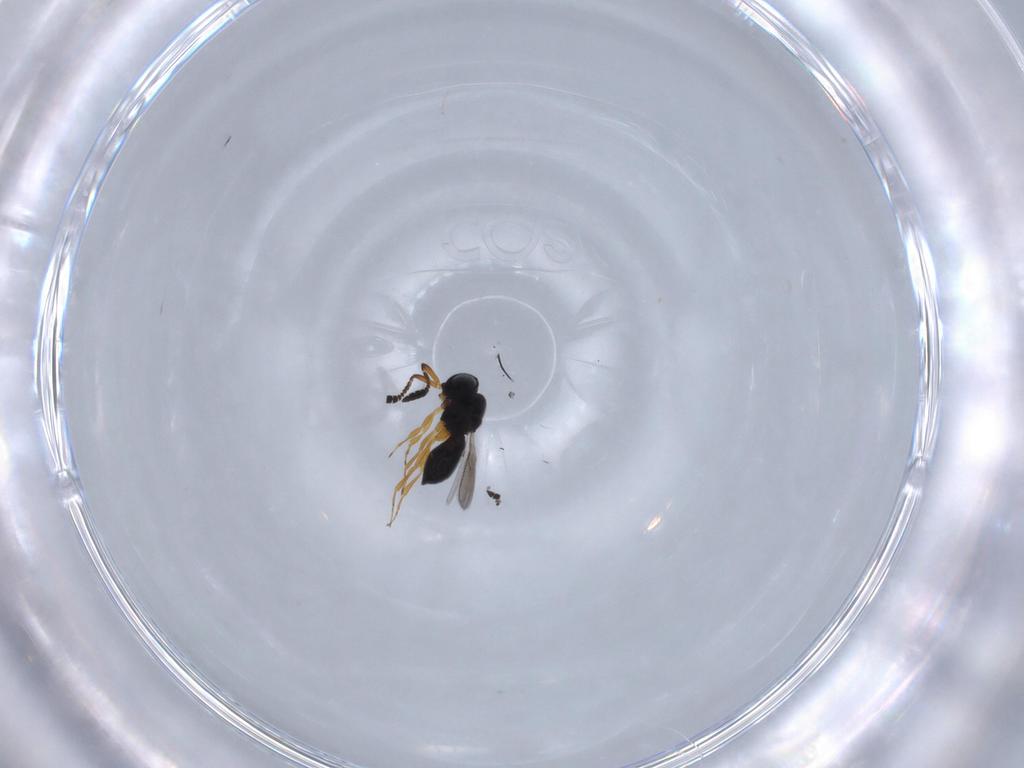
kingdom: Animalia
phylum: Arthropoda
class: Insecta
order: Hymenoptera
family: Scelionidae
